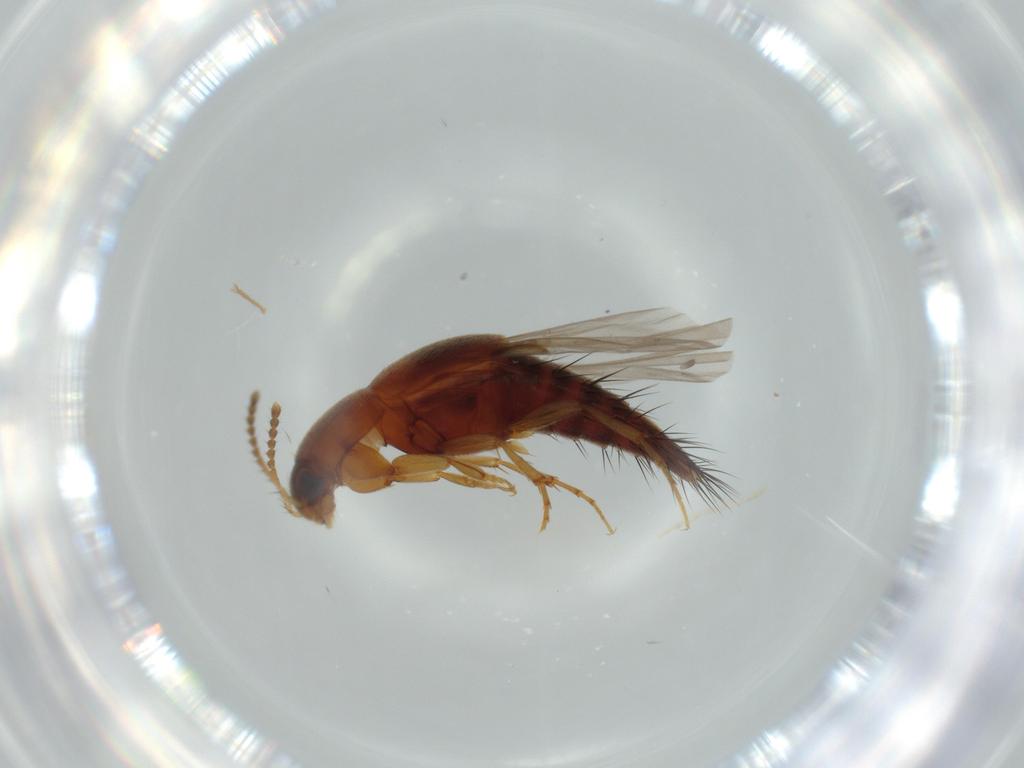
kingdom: Animalia
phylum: Arthropoda
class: Insecta
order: Coleoptera
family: Staphylinidae
